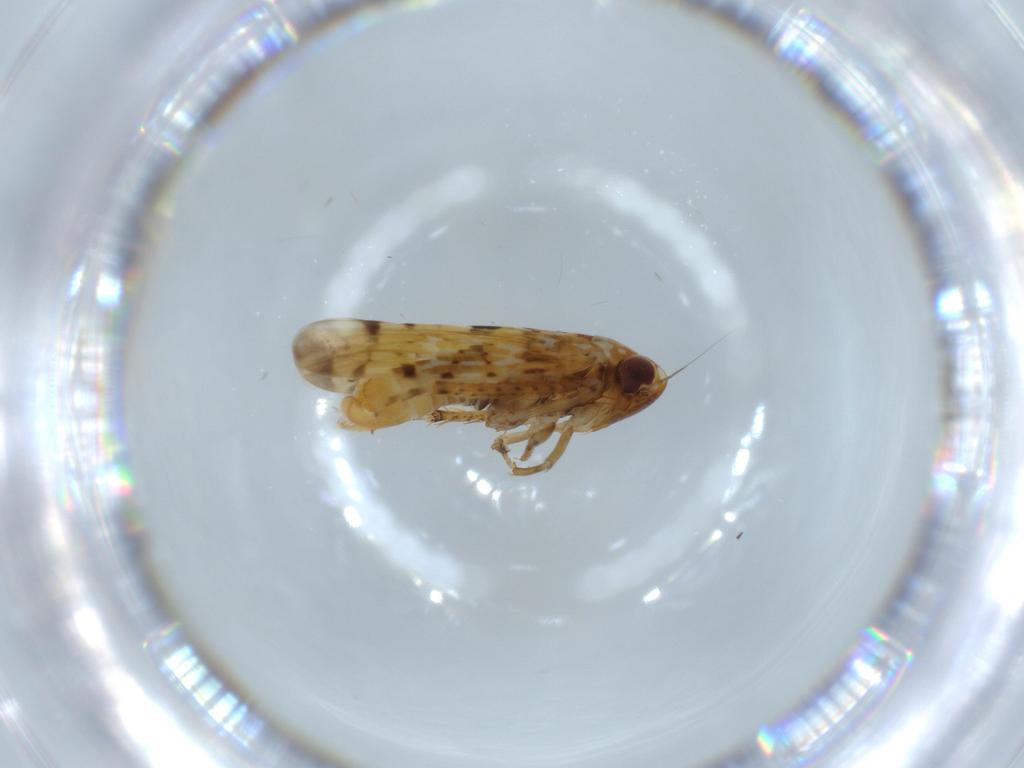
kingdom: Animalia
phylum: Arthropoda
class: Insecta
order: Hemiptera
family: Cicadellidae
